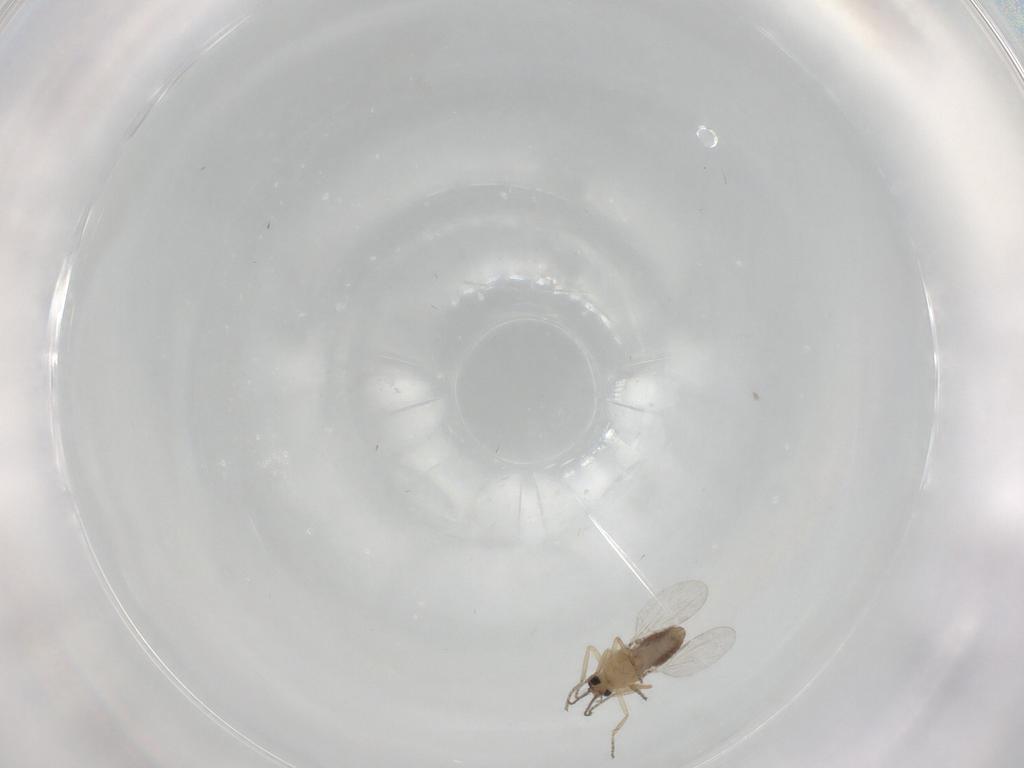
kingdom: Animalia
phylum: Arthropoda
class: Insecta
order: Diptera
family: Ceratopogonidae
